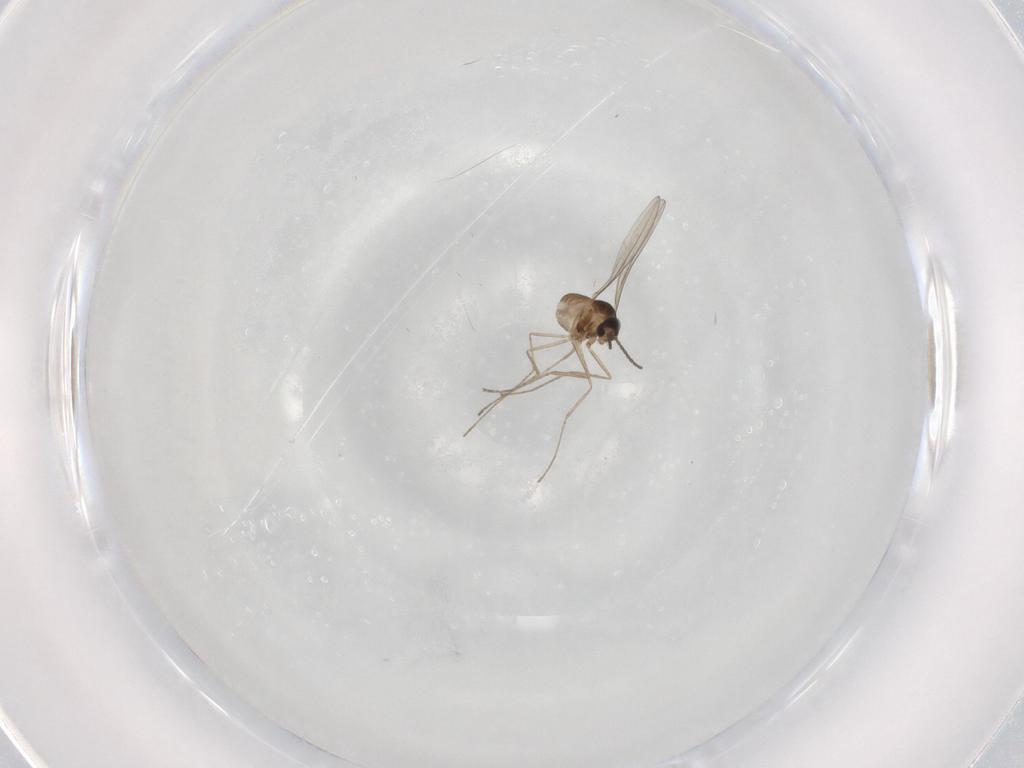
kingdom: Animalia
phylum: Arthropoda
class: Insecta
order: Diptera
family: Cecidomyiidae
